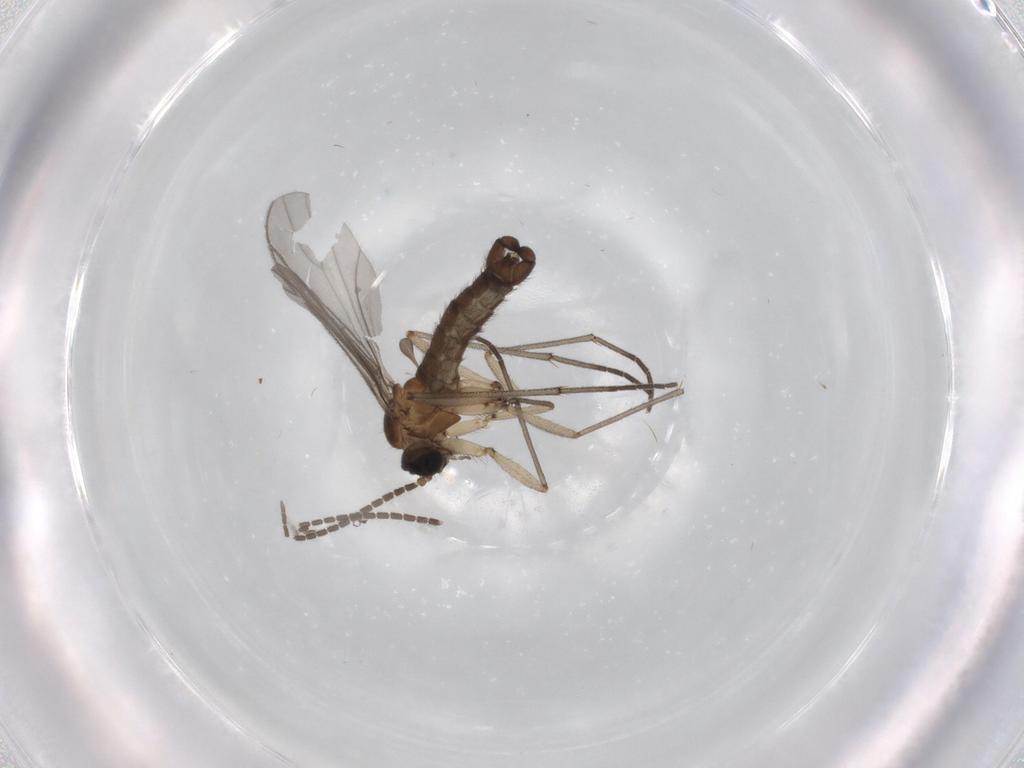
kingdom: Animalia
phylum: Arthropoda
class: Insecta
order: Diptera
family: Sciaridae
